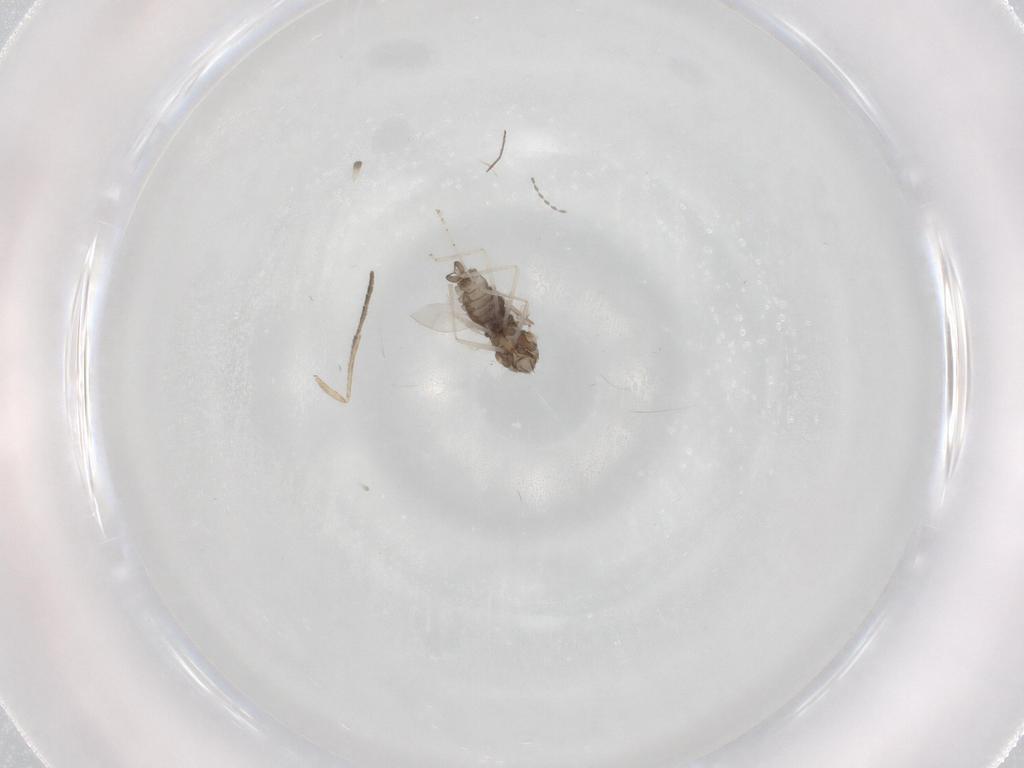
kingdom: Animalia
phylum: Arthropoda
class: Insecta
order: Diptera
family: Psychodidae
